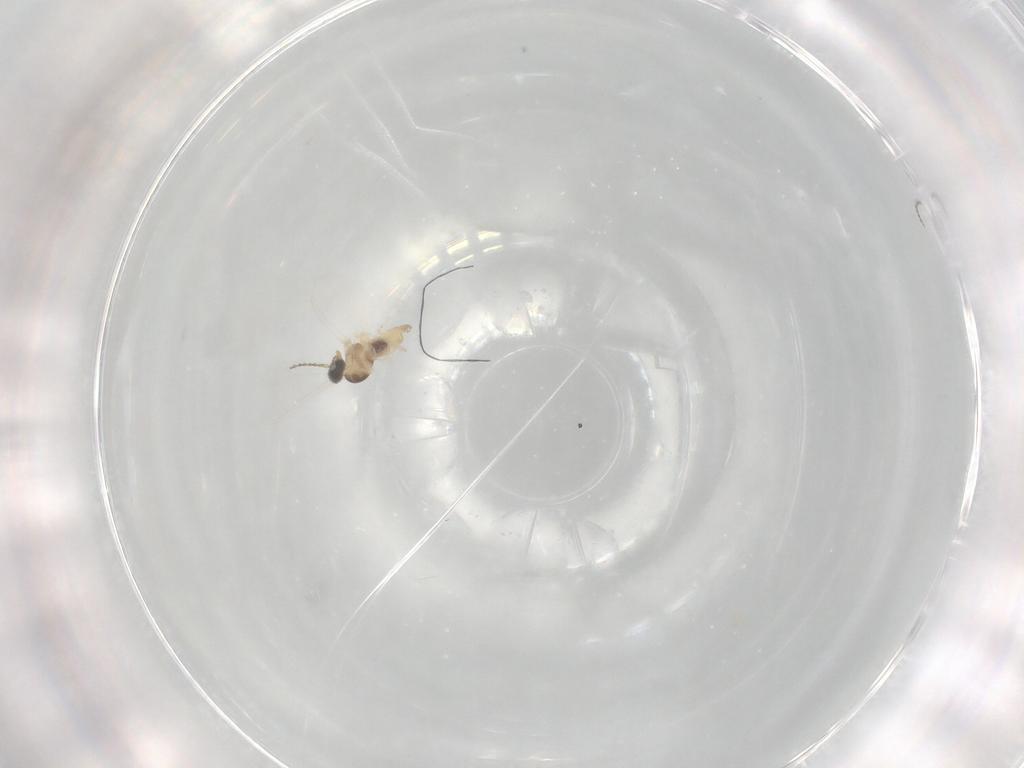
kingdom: Animalia
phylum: Arthropoda
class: Insecta
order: Diptera
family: Cecidomyiidae
